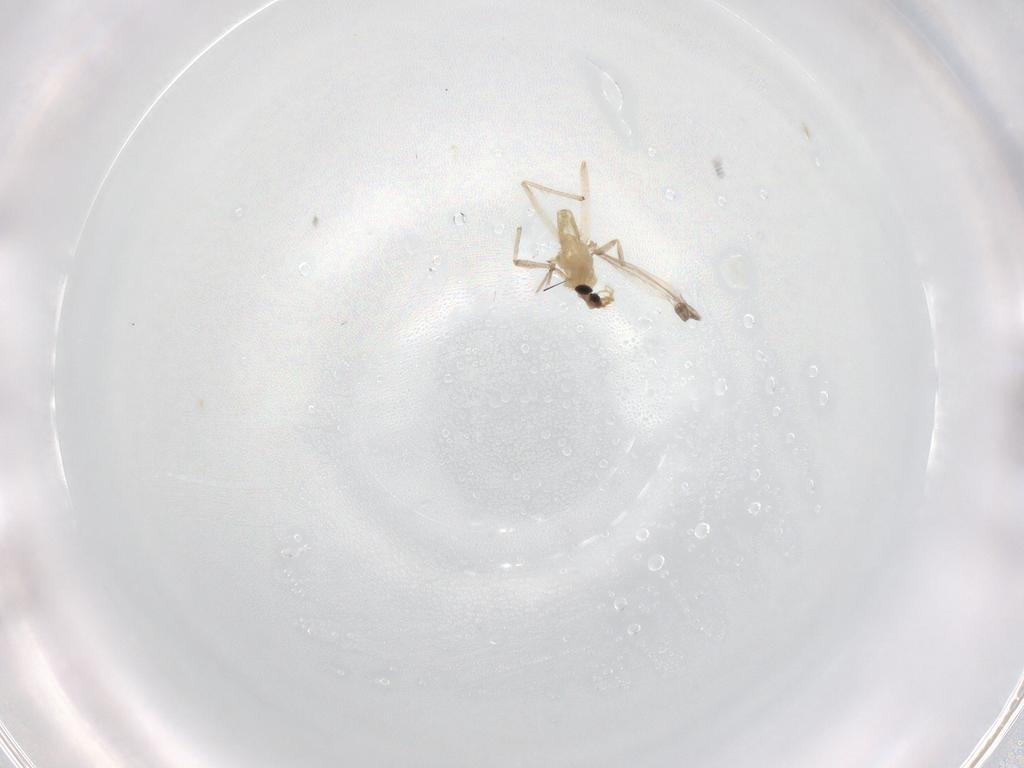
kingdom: Animalia
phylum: Arthropoda
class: Insecta
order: Diptera
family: Chironomidae
